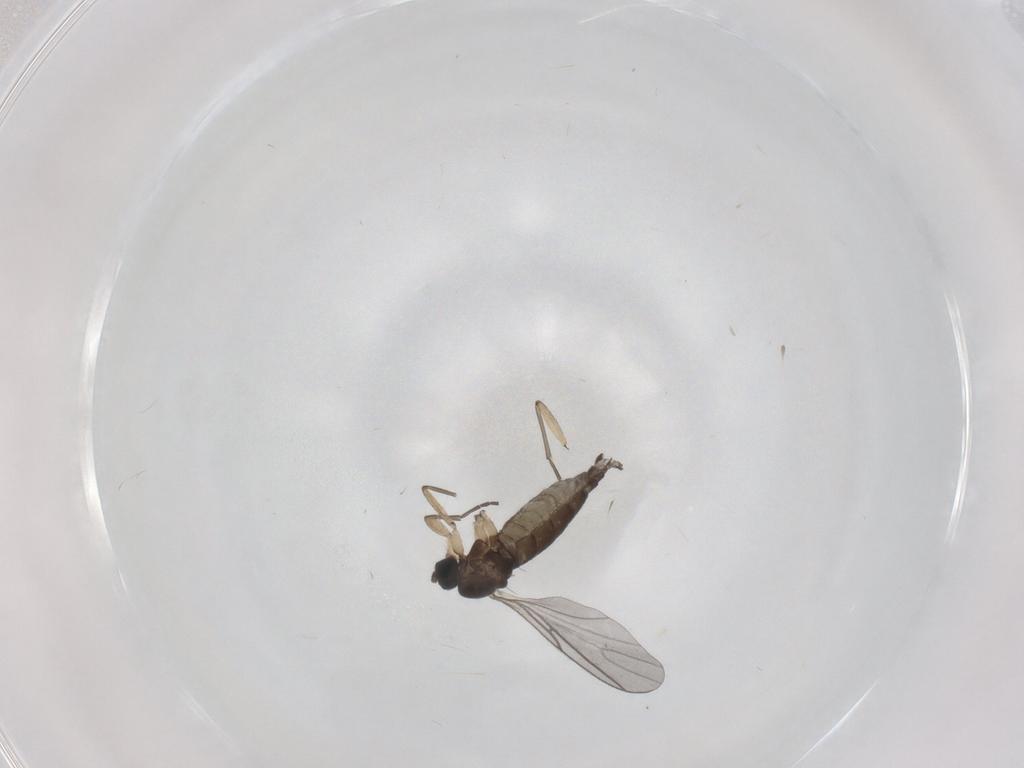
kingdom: Animalia
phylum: Arthropoda
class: Insecta
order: Diptera
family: Sciaridae
